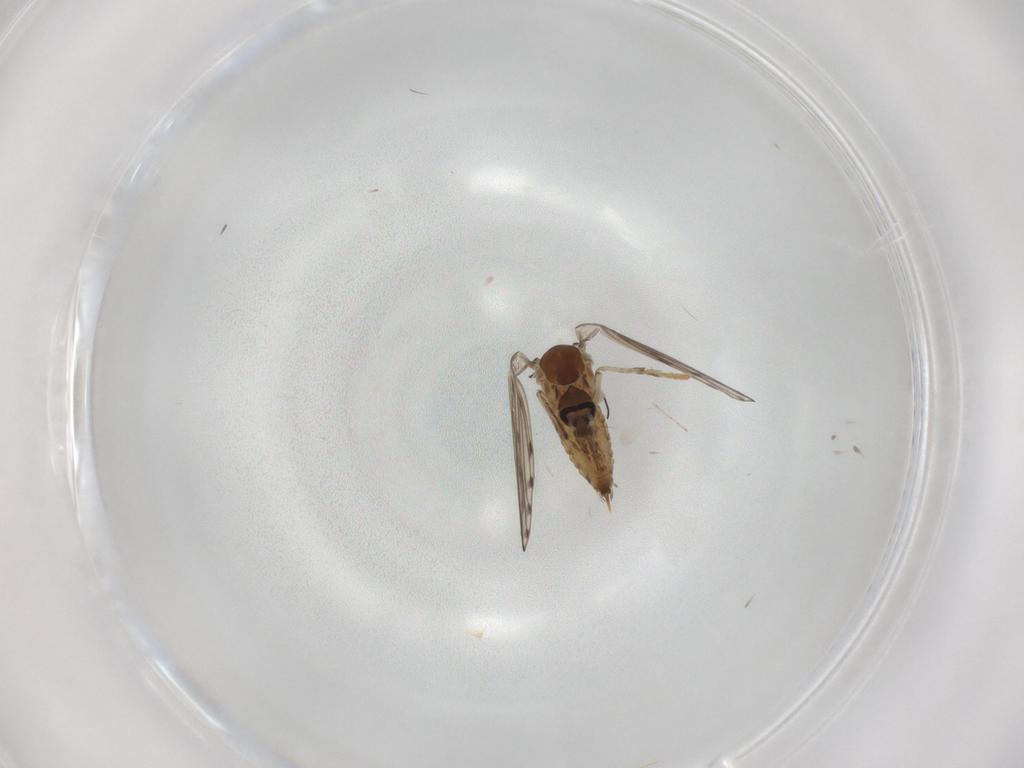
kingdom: Animalia
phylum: Arthropoda
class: Insecta
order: Diptera
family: Psychodidae
